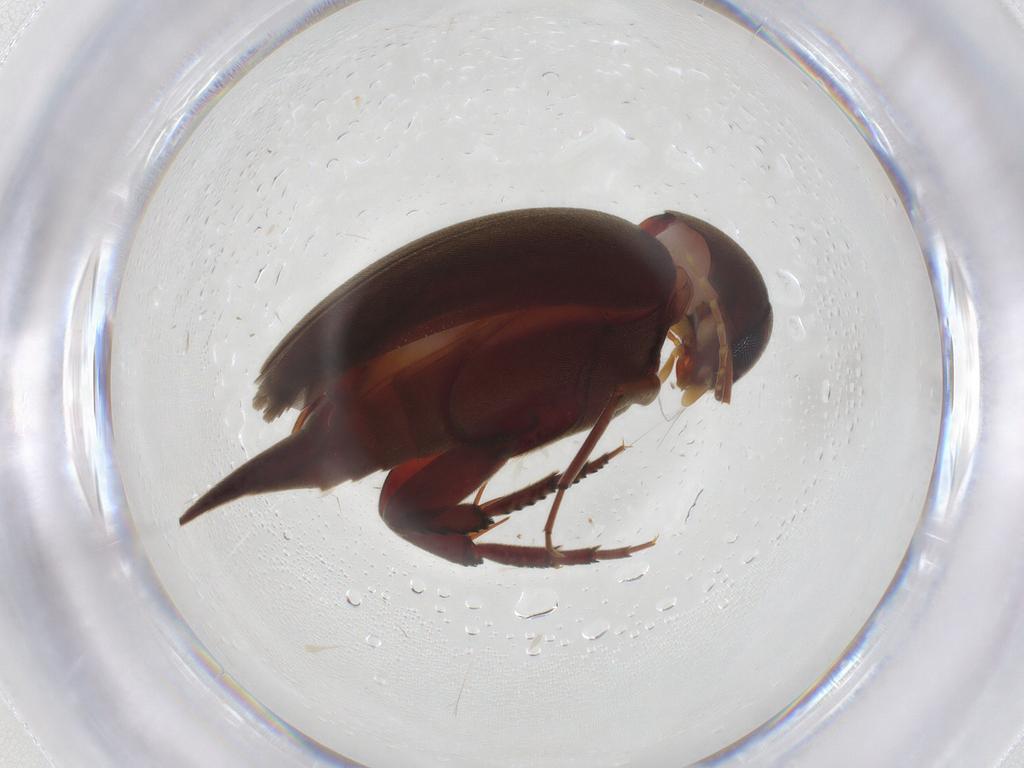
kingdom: Animalia
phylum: Arthropoda
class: Insecta
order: Coleoptera
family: Mordellidae
